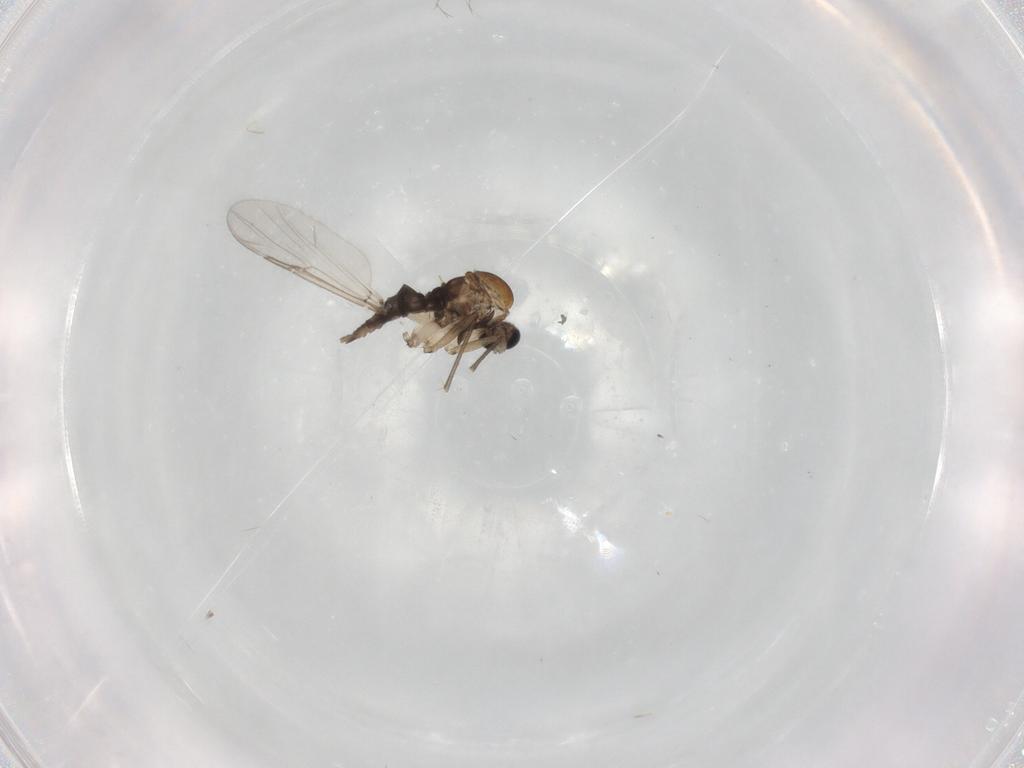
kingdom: Animalia
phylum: Arthropoda
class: Insecta
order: Diptera
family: Sciaridae
